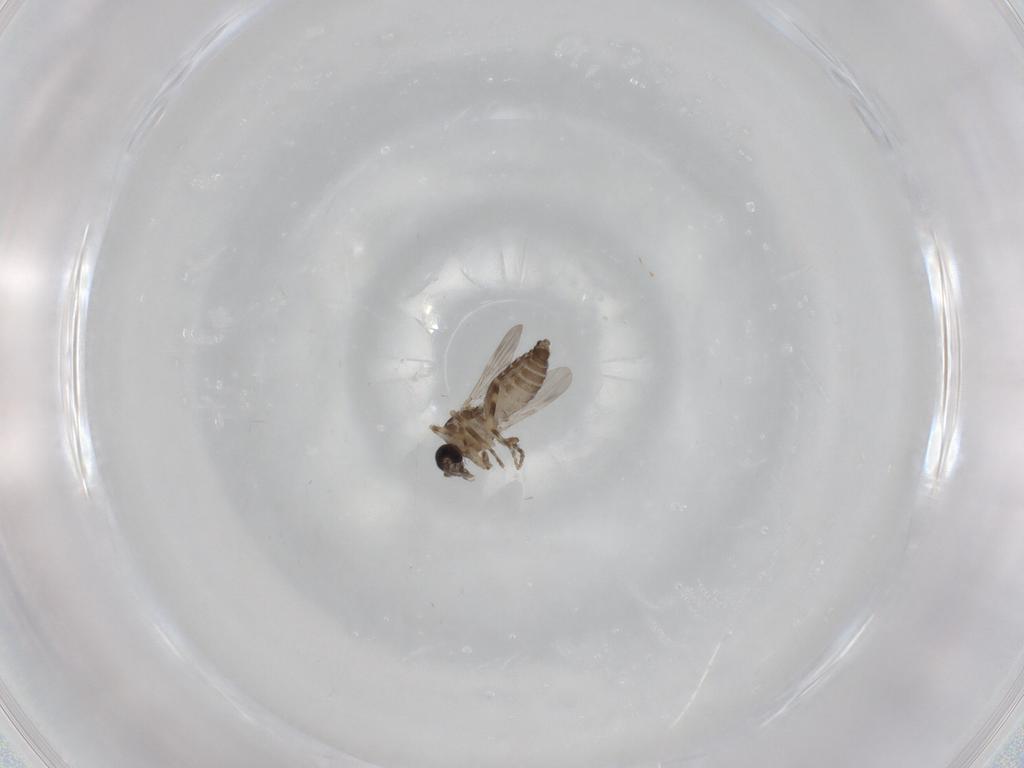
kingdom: Animalia
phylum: Arthropoda
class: Insecta
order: Diptera
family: Ceratopogonidae
